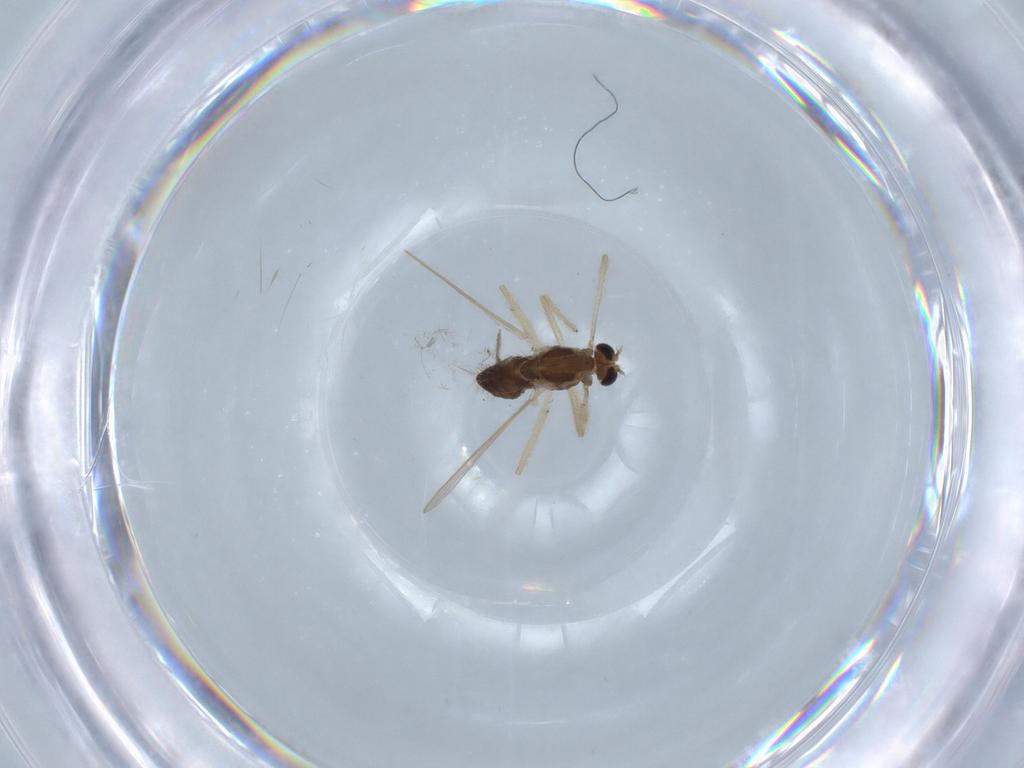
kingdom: Animalia
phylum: Arthropoda
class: Insecta
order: Diptera
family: Chironomidae
